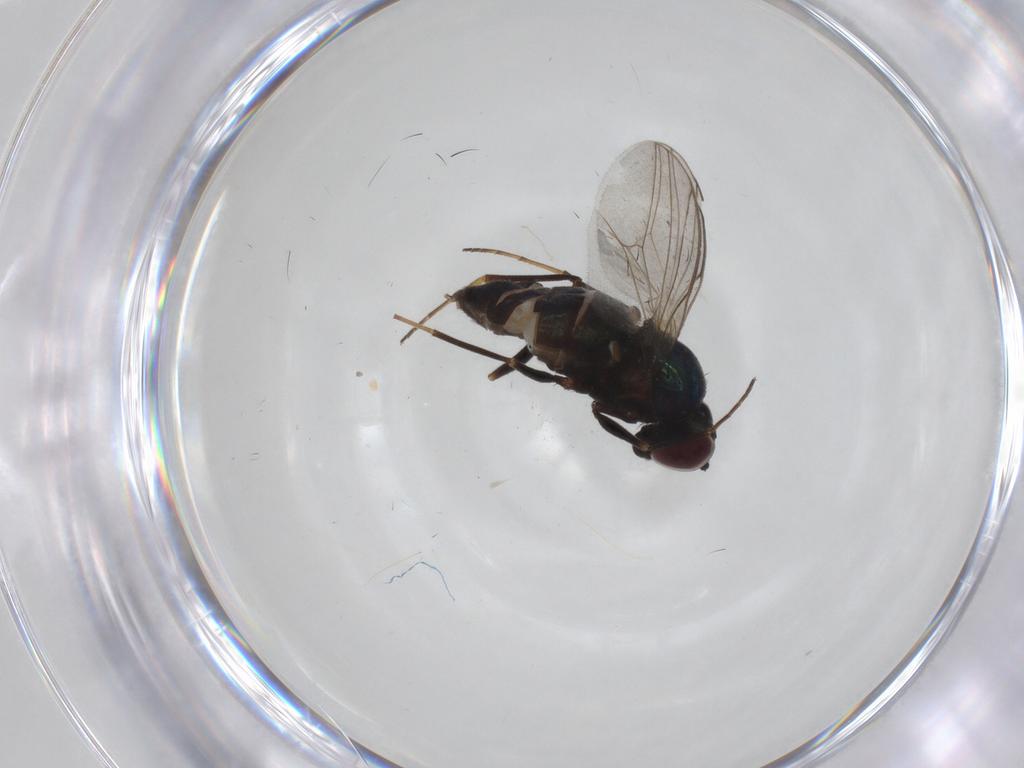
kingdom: Animalia
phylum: Arthropoda
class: Insecta
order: Diptera
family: Dolichopodidae
